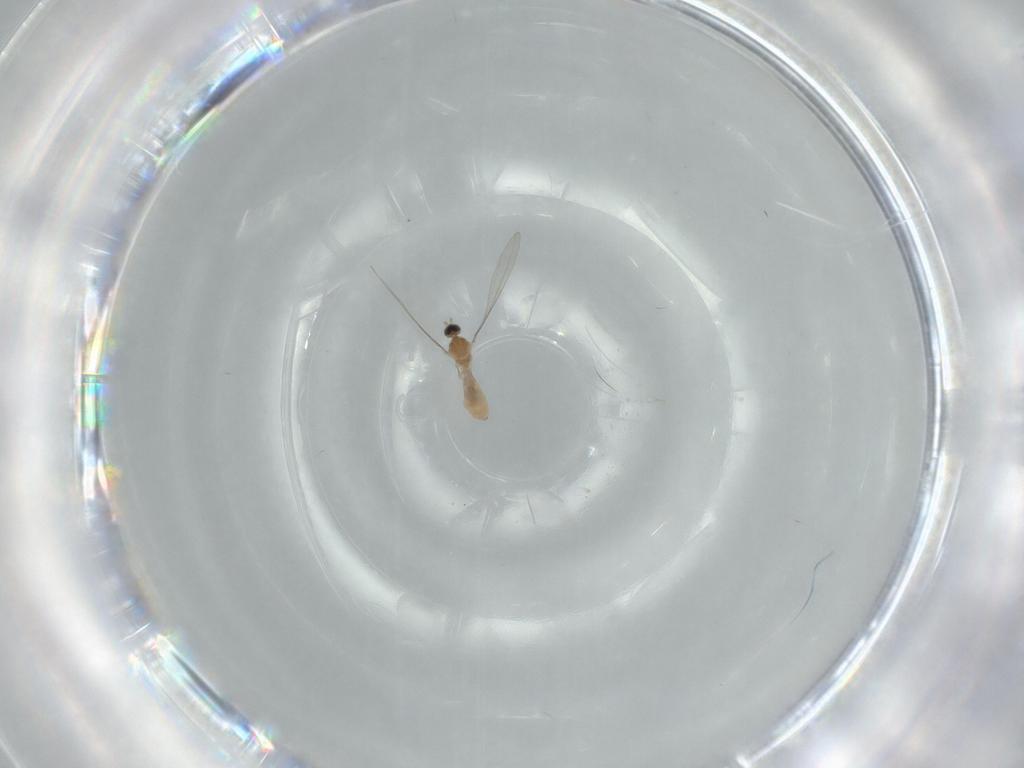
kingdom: Animalia
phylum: Arthropoda
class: Insecta
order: Diptera
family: Cecidomyiidae
